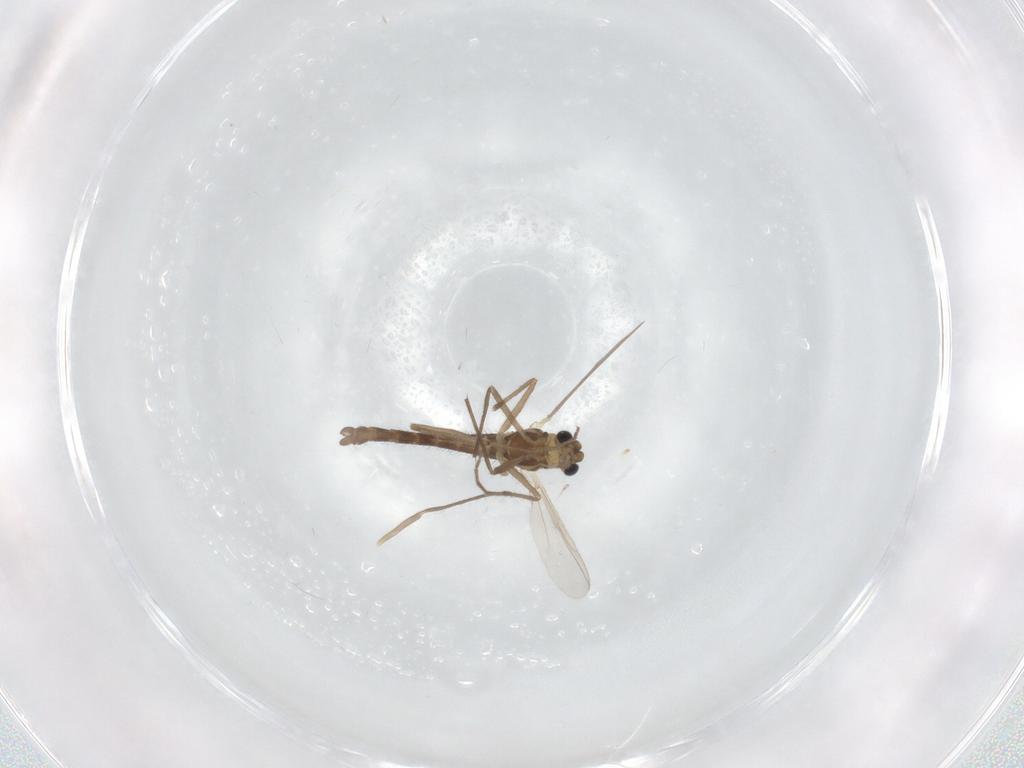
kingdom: Animalia
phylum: Arthropoda
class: Insecta
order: Diptera
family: Chironomidae
